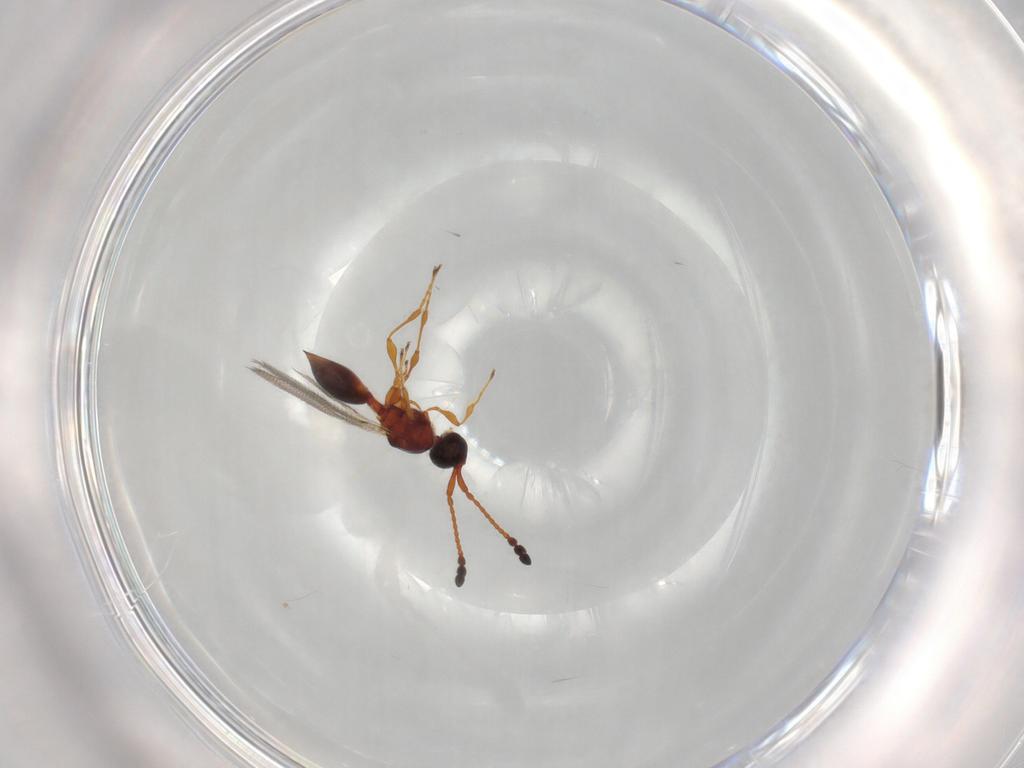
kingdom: Animalia
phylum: Arthropoda
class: Insecta
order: Hymenoptera
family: Diapriidae
